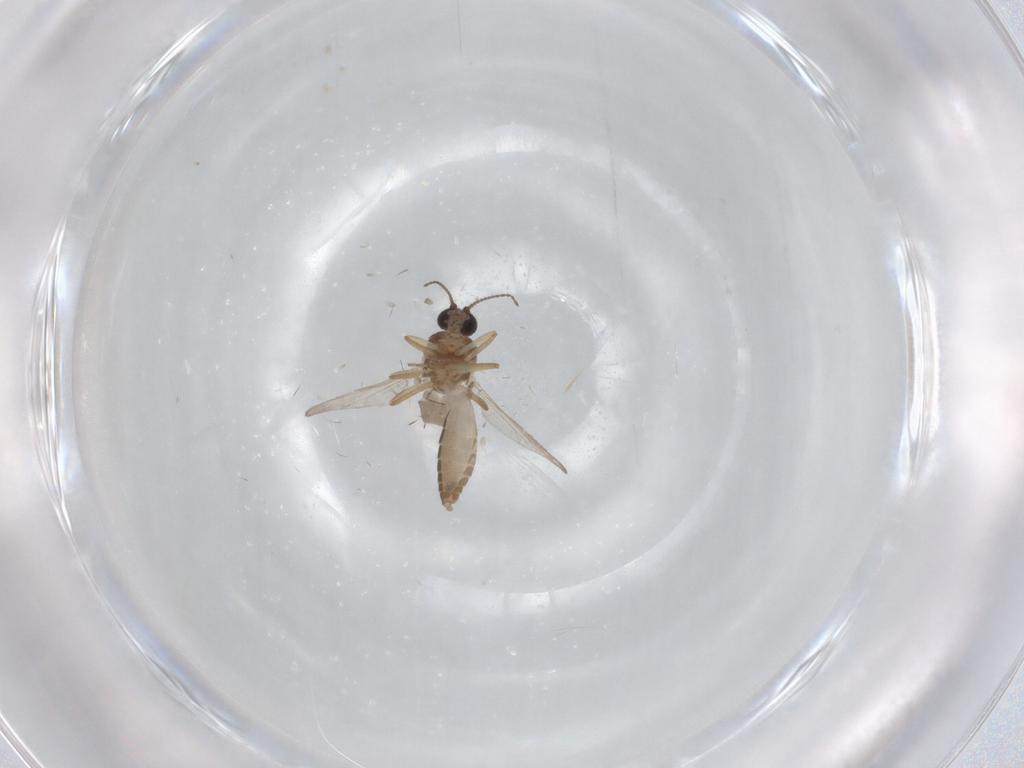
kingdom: Animalia
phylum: Arthropoda
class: Insecta
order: Diptera
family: Ceratopogonidae
